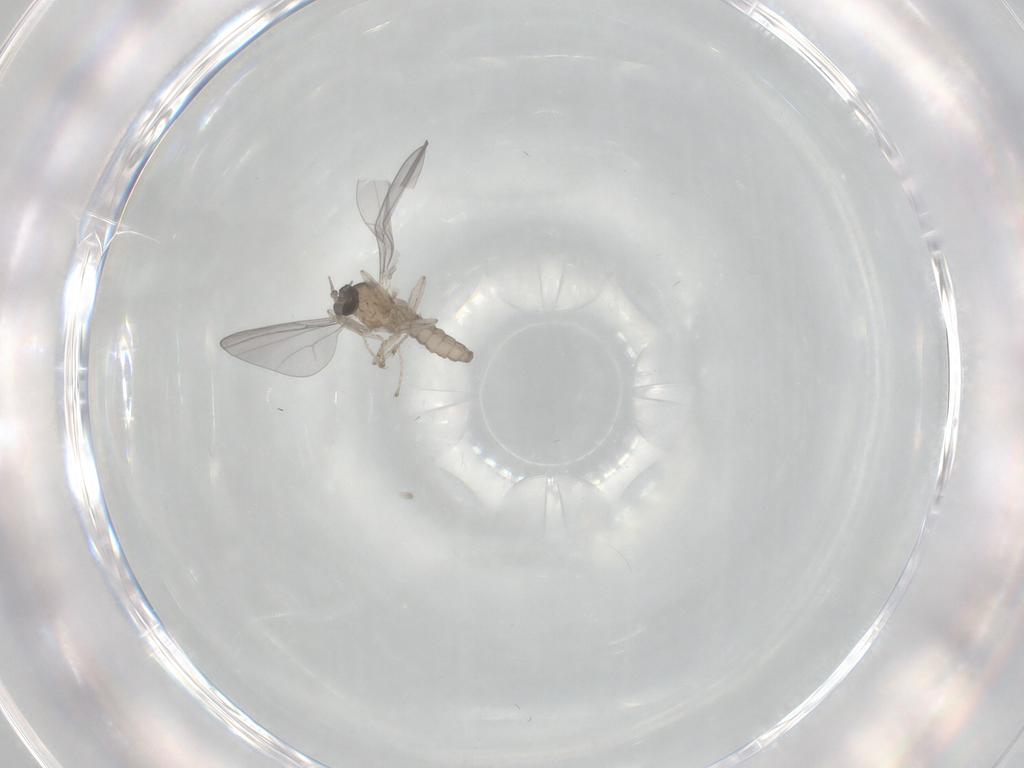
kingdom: Animalia
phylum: Arthropoda
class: Insecta
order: Diptera
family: Cecidomyiidae
